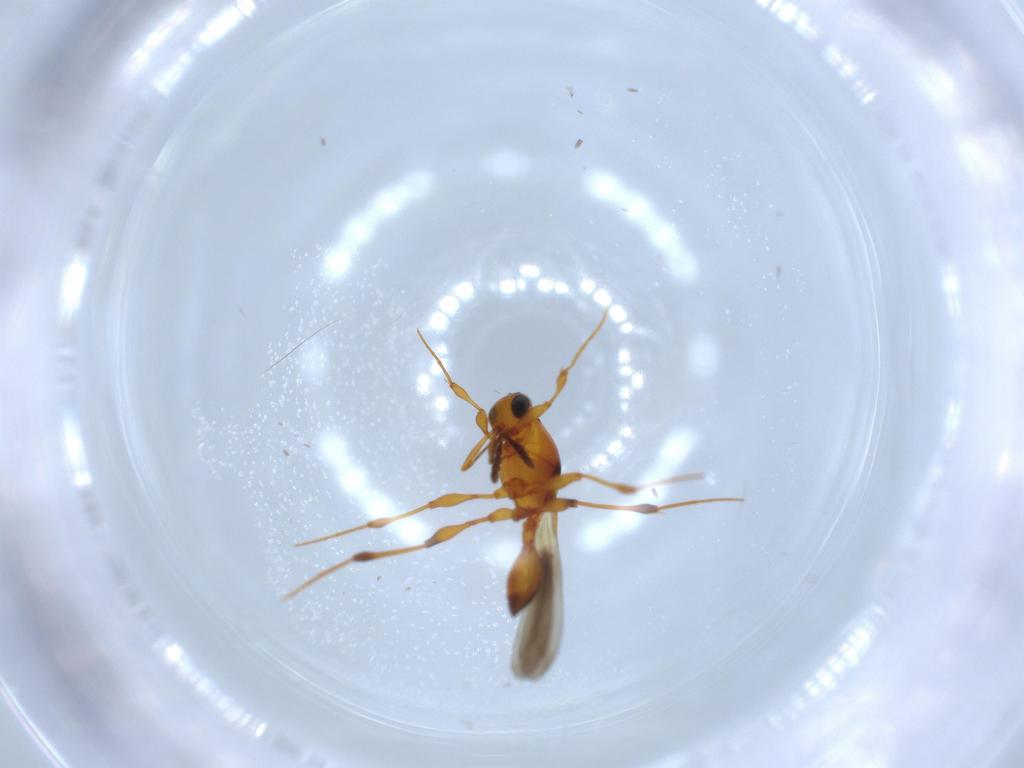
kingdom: Animalia
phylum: Arthropoda
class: Insecta
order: Hymenoptera
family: Platygastridae
